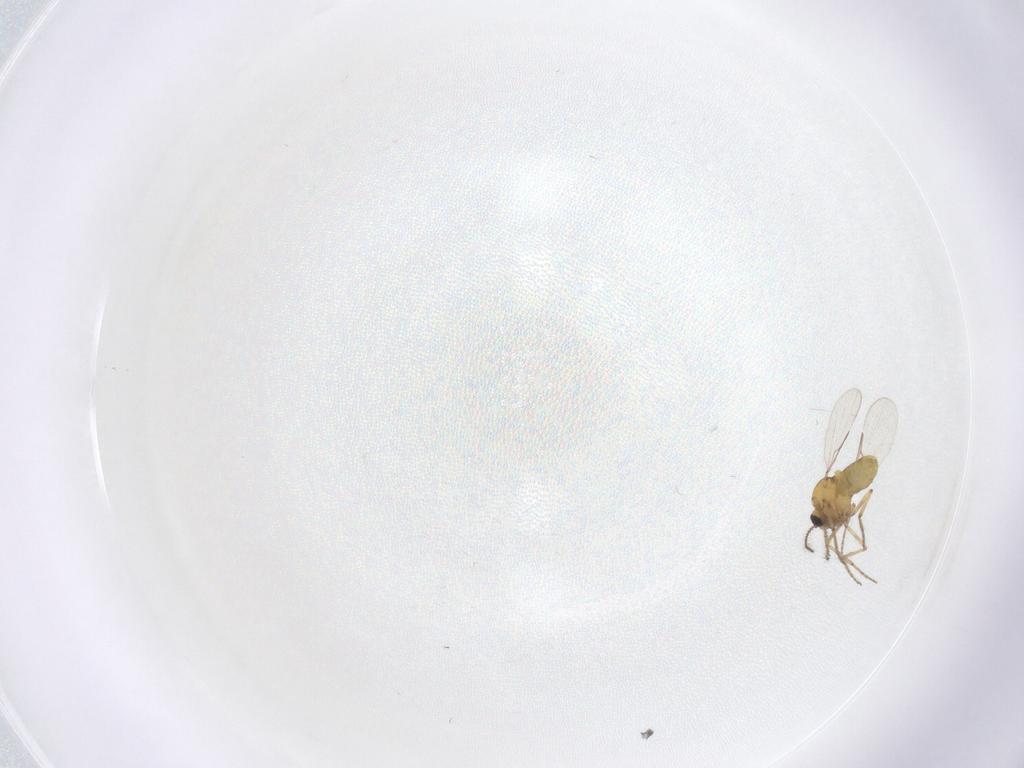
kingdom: Animalia
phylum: Arthropoda
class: Insecta
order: Diptera
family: Ceratopogonidae
